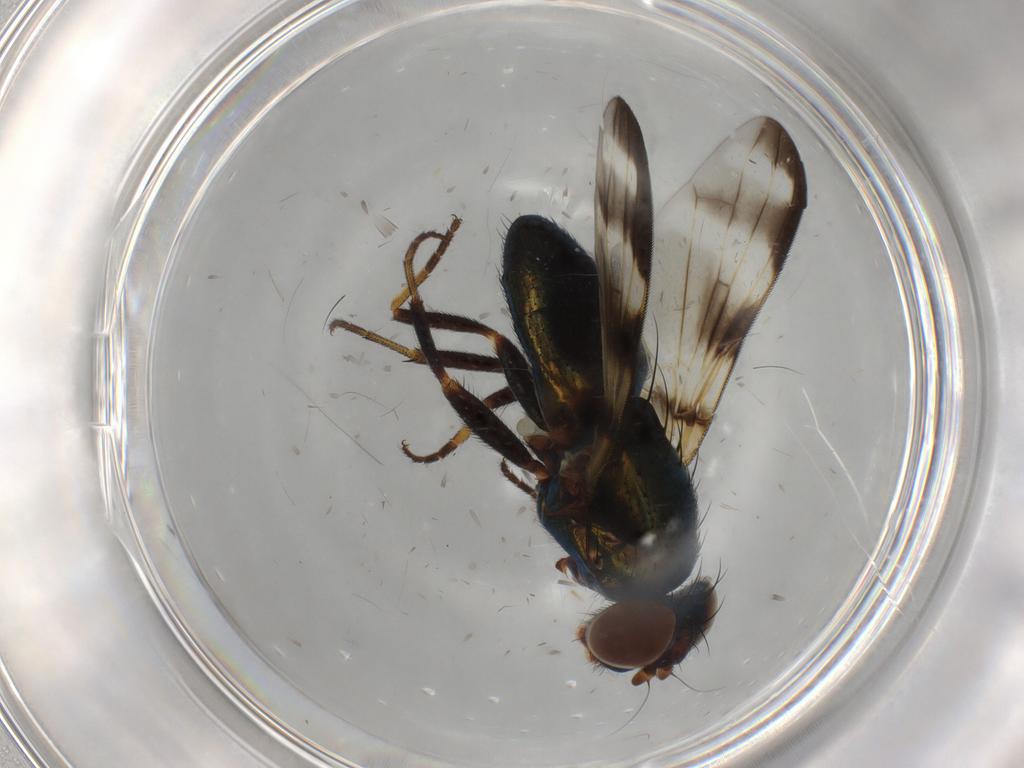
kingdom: Animalia
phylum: Arthropoda
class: Insecta
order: Diptera
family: Ulidiidae
